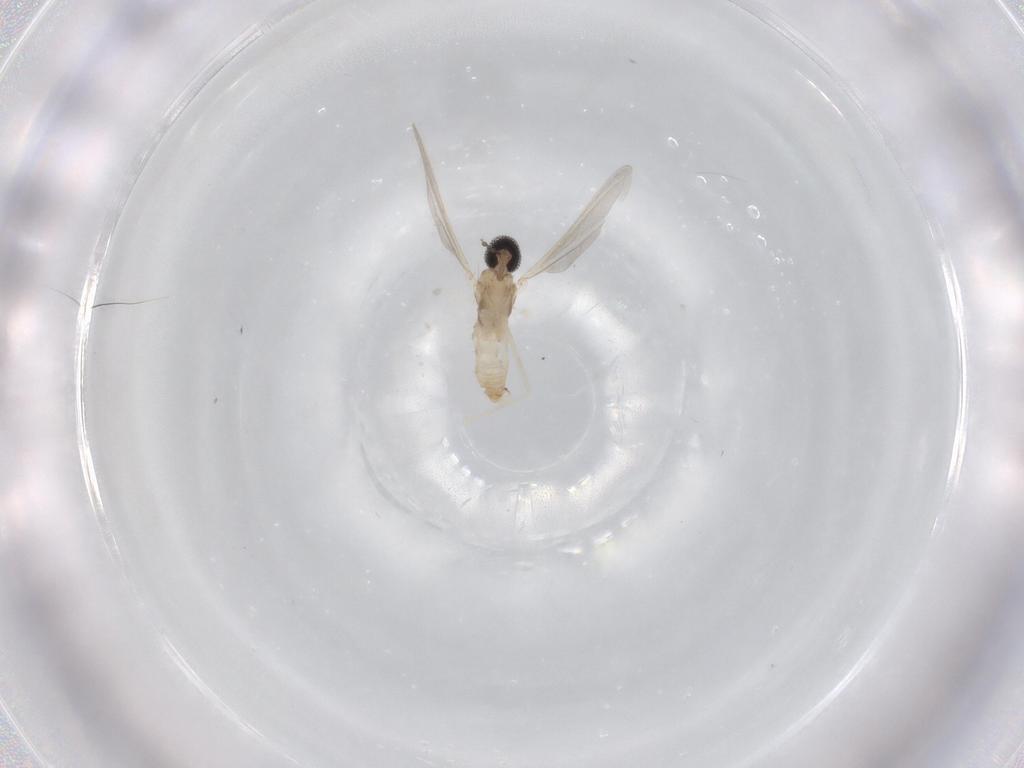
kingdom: Animalia
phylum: Arthropoda
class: Insecta
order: Diptera
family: Cecidomyiidae
